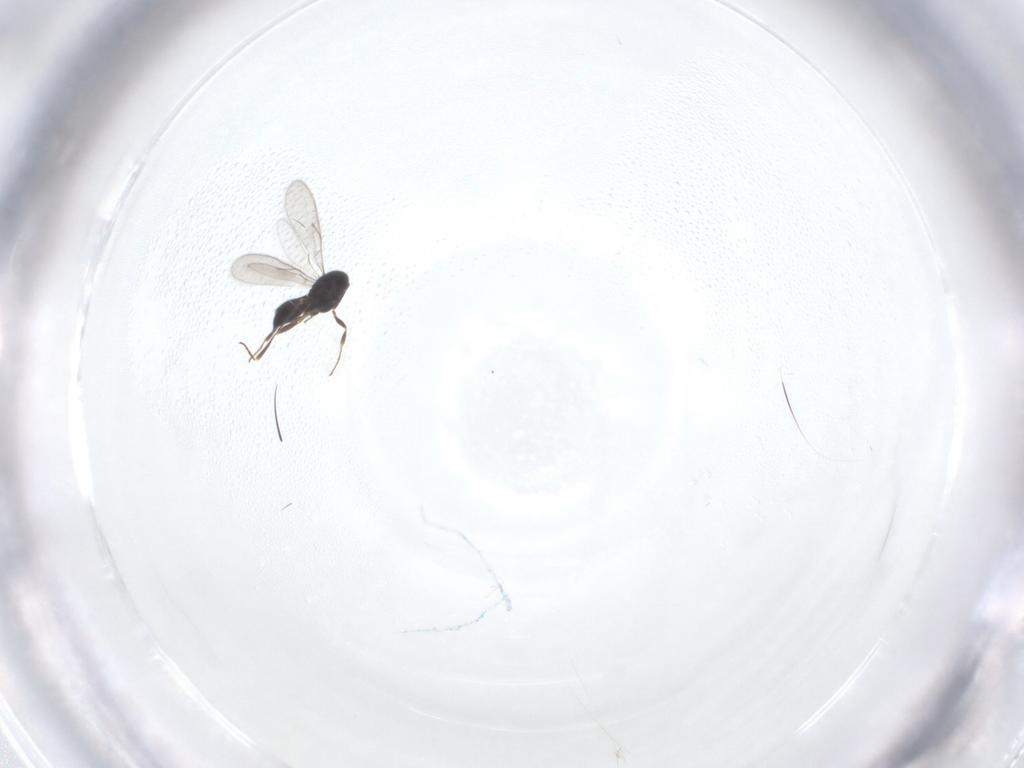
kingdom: Animalia
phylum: Arthropoda
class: Insecta
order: Hymenoptera
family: Scelionidae
